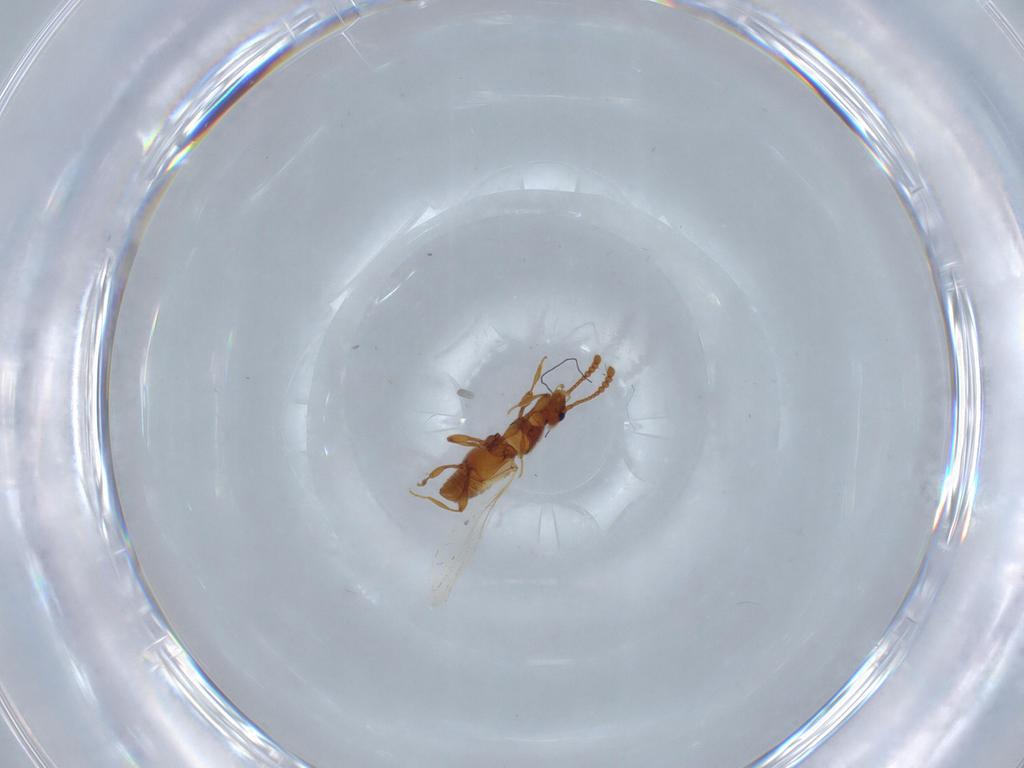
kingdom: Animalia
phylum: Arthropoda
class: Insecta
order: Coleoptera
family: Staphylinidae
